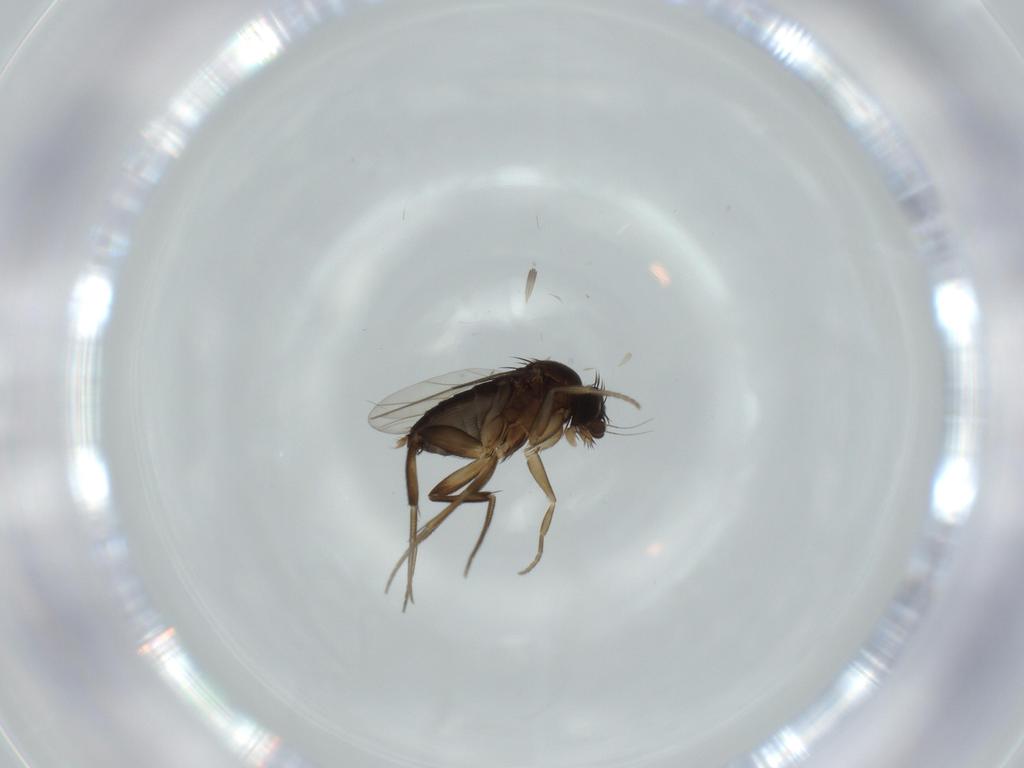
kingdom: Animalia
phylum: Arthropoda
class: Insecta
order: Diptera
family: Phoridae
